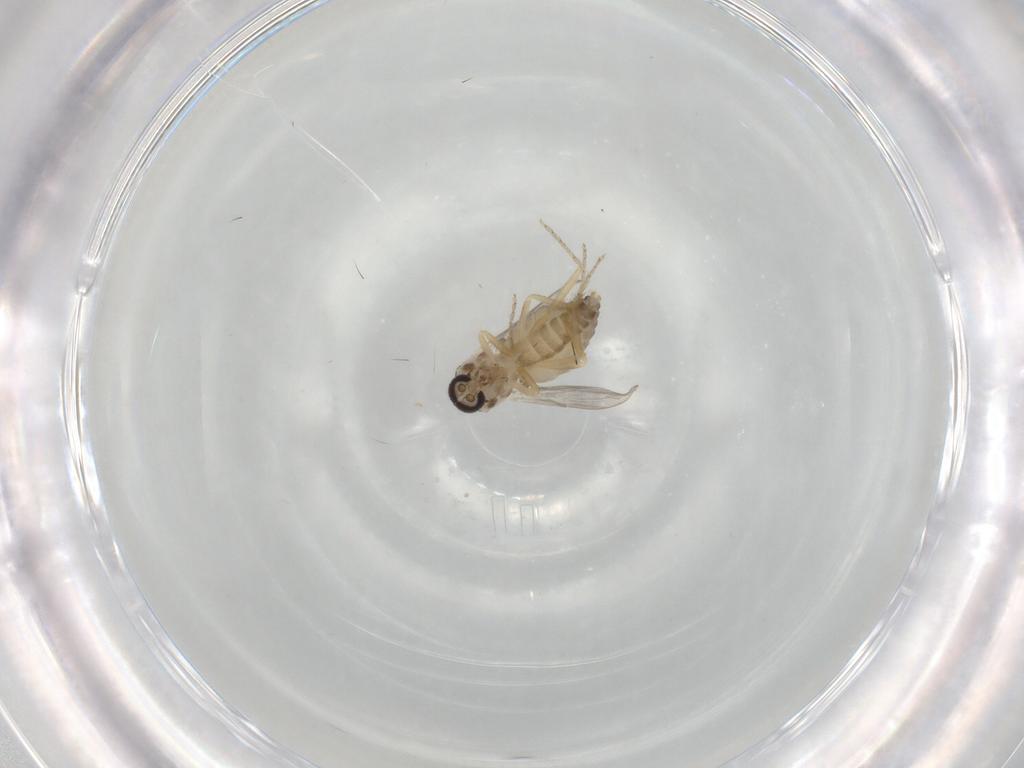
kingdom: Animalia
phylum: Arthropoda
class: Insecta
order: Diptera
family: Ceratopogonidae
